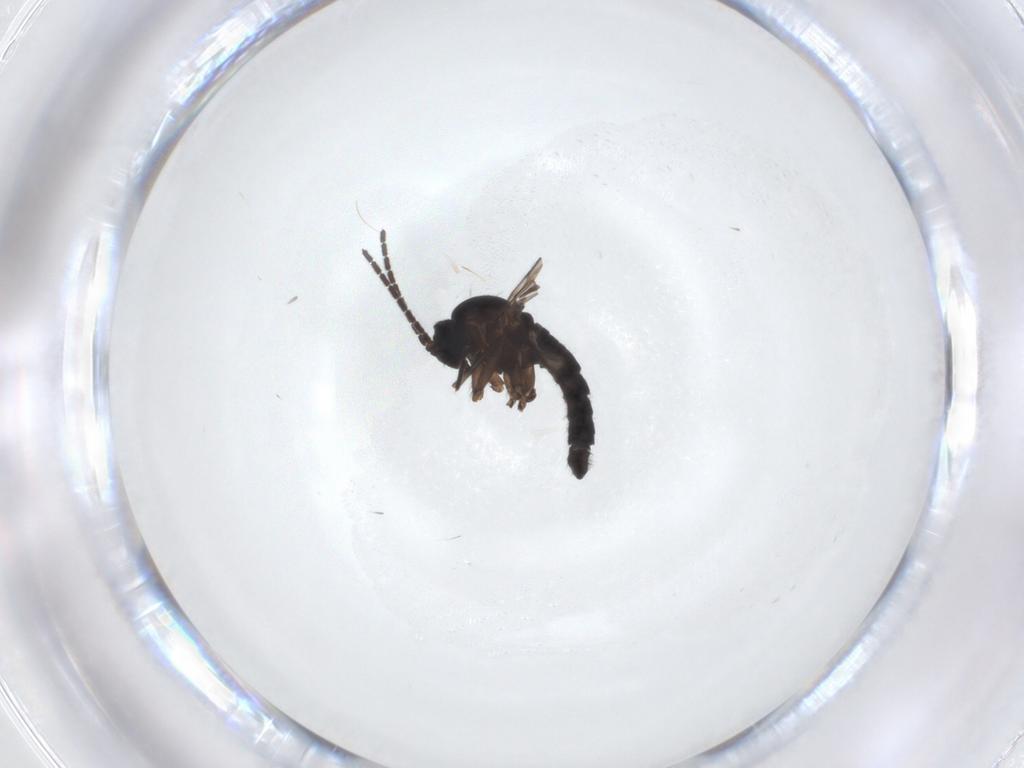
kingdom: Animalia
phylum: Arthropoda
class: Insecta
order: Diptera
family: Sciaridae
